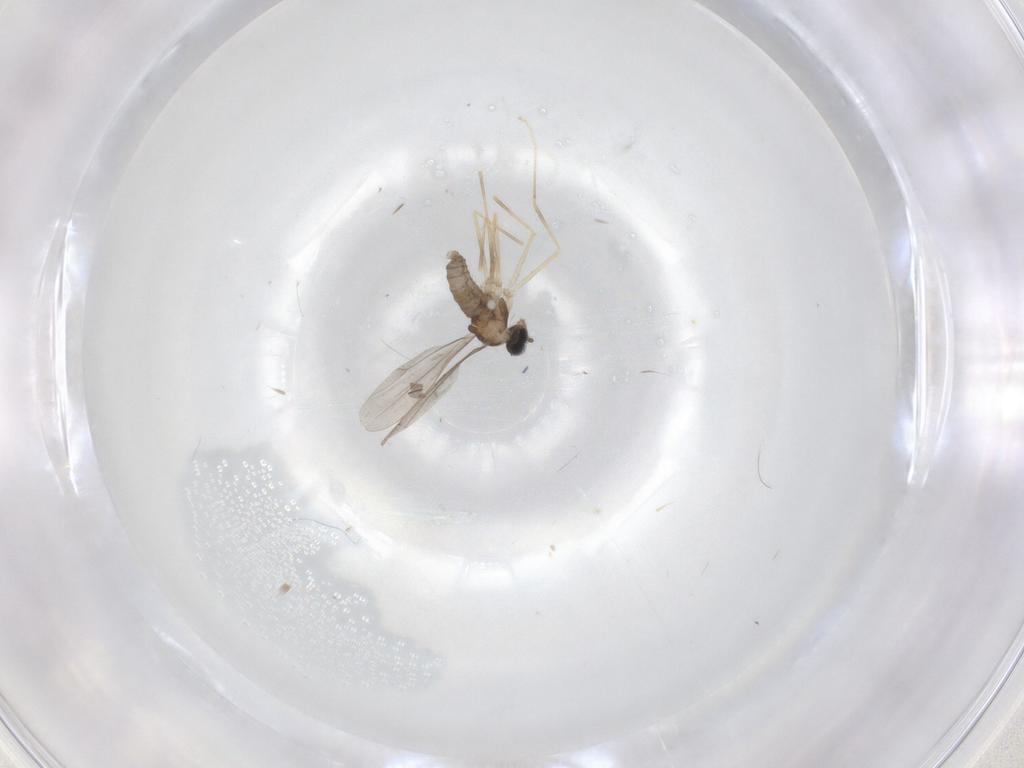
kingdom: Animalia
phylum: Arthropoda
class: Insecta
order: Diptera
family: Cecidomyiidae
